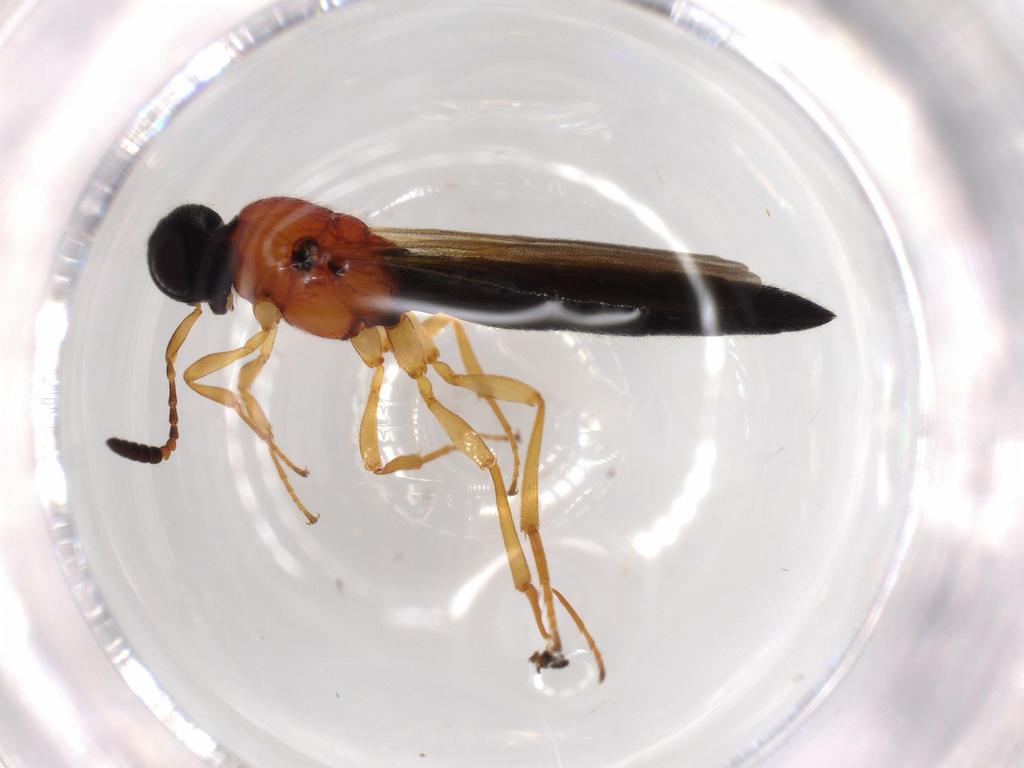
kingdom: Animalia
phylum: Arthropoda
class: Insecta
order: Hymenoptera
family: Scelionidae
